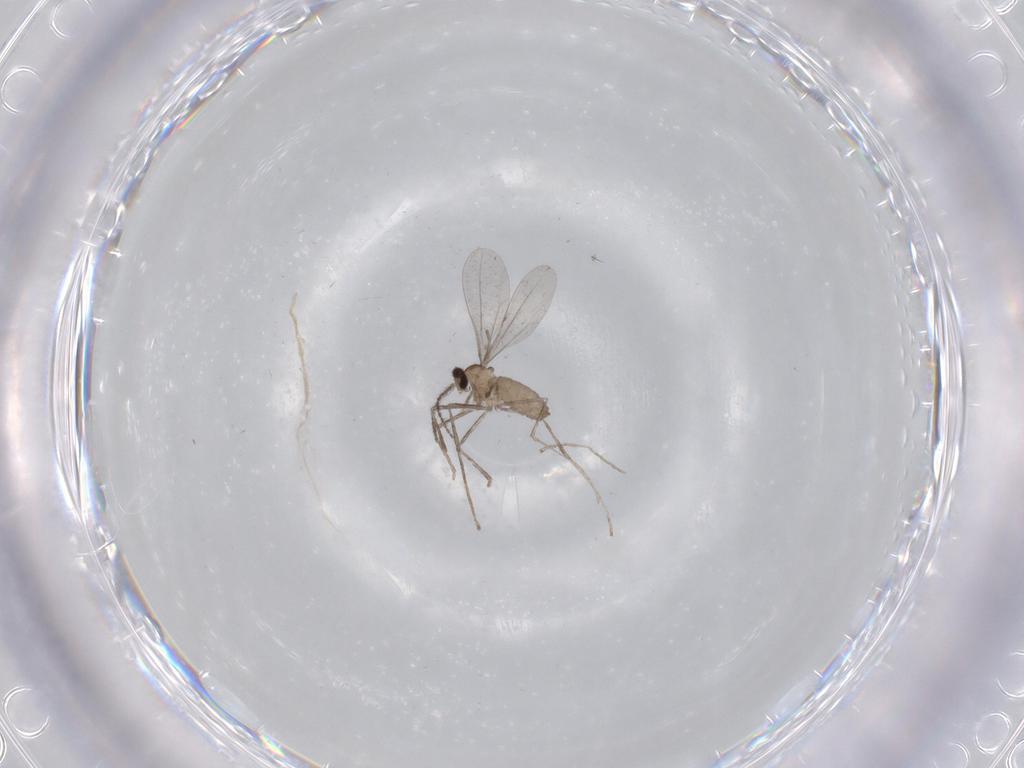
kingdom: Animalia
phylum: Arthropoda
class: Insecta
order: Diptera
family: Cecidomyiidae
